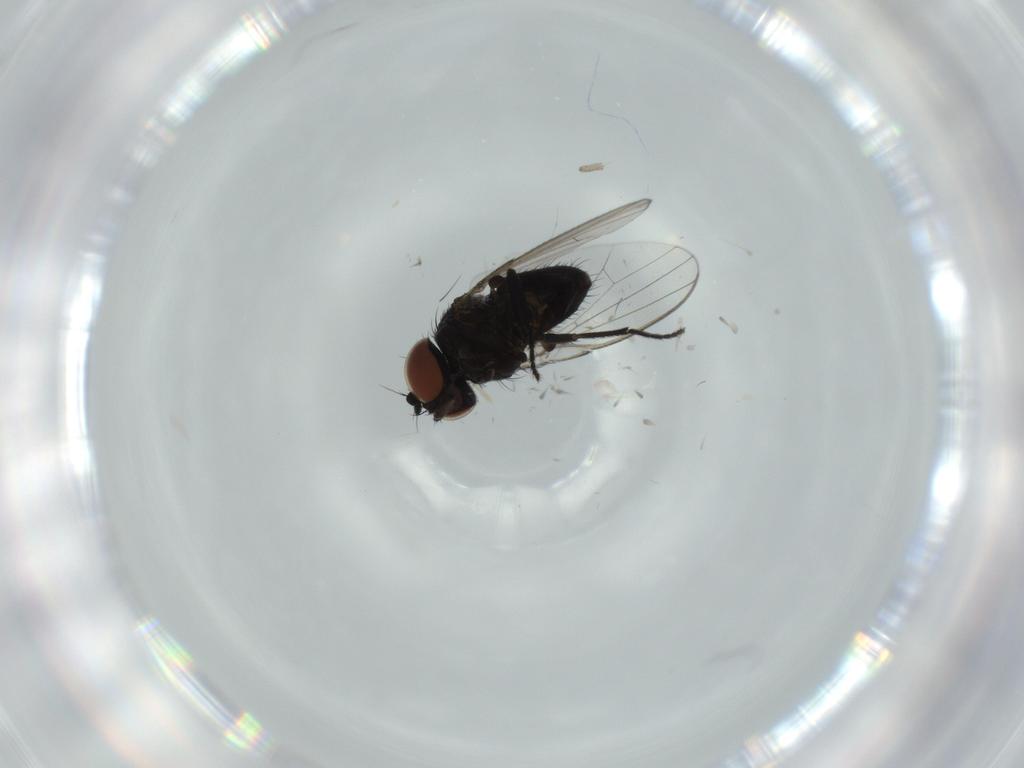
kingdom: Animalia
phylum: Arthropoda
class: Insecta
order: Diptera
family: Milichiidae
